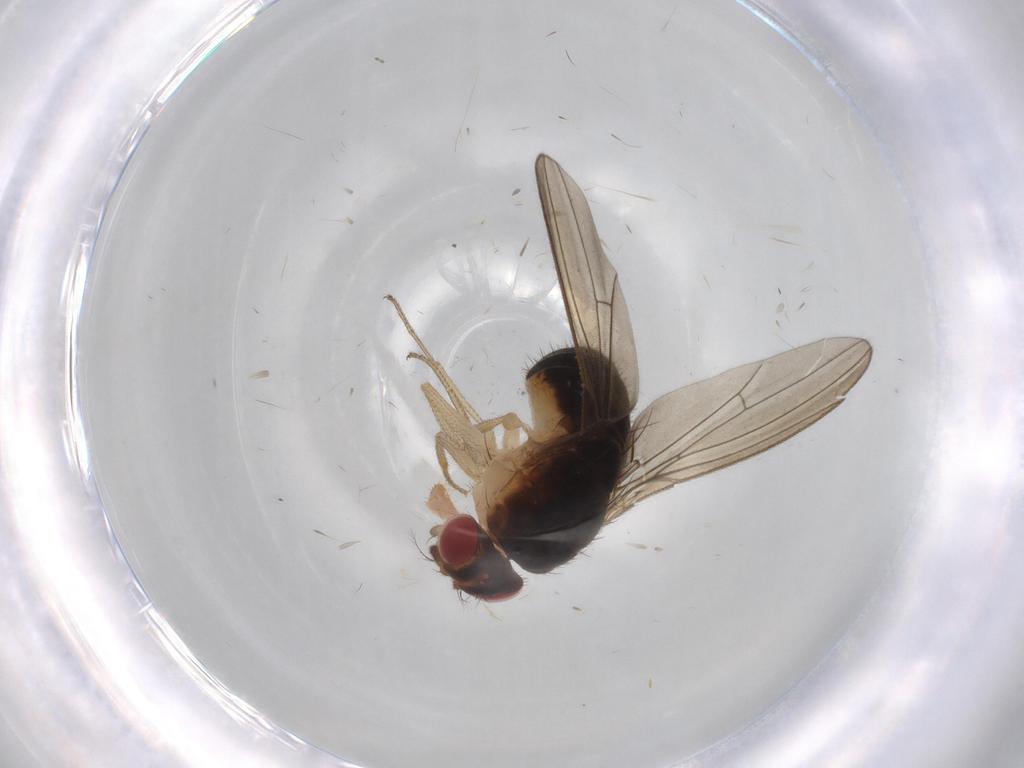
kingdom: Animalia
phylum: Arthropoda
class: Insecta
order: Diptera
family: Drosophilidae
